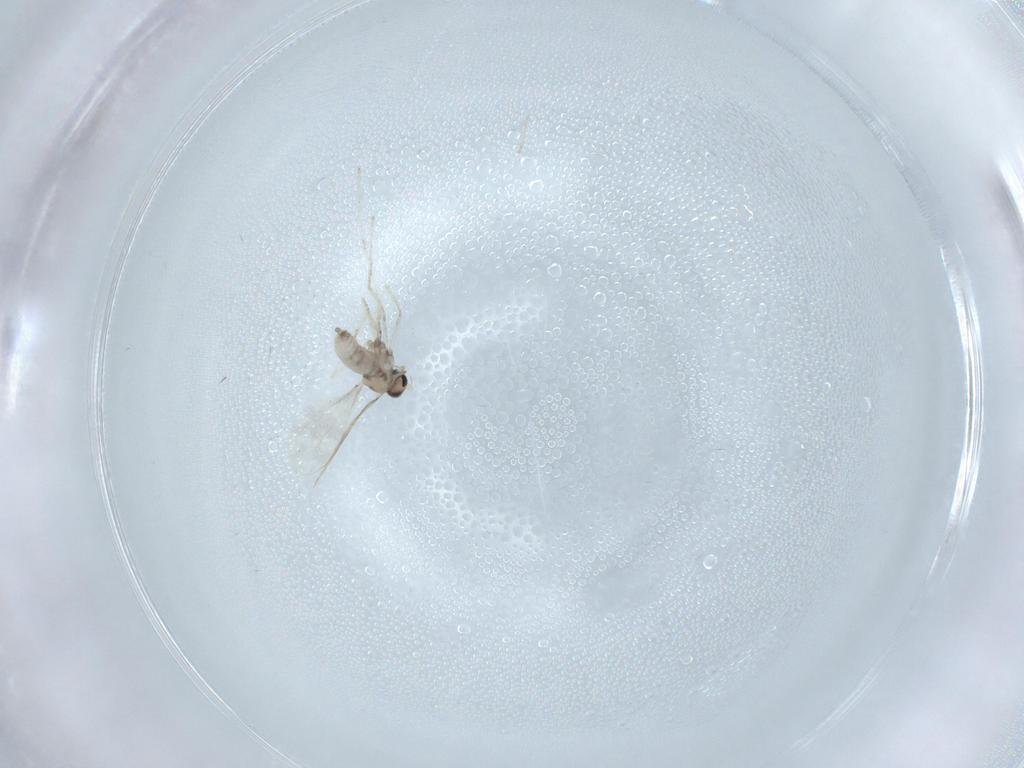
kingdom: Animalia
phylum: Arthropoda
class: Insecta
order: Diptera
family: Cecidomyiidae
